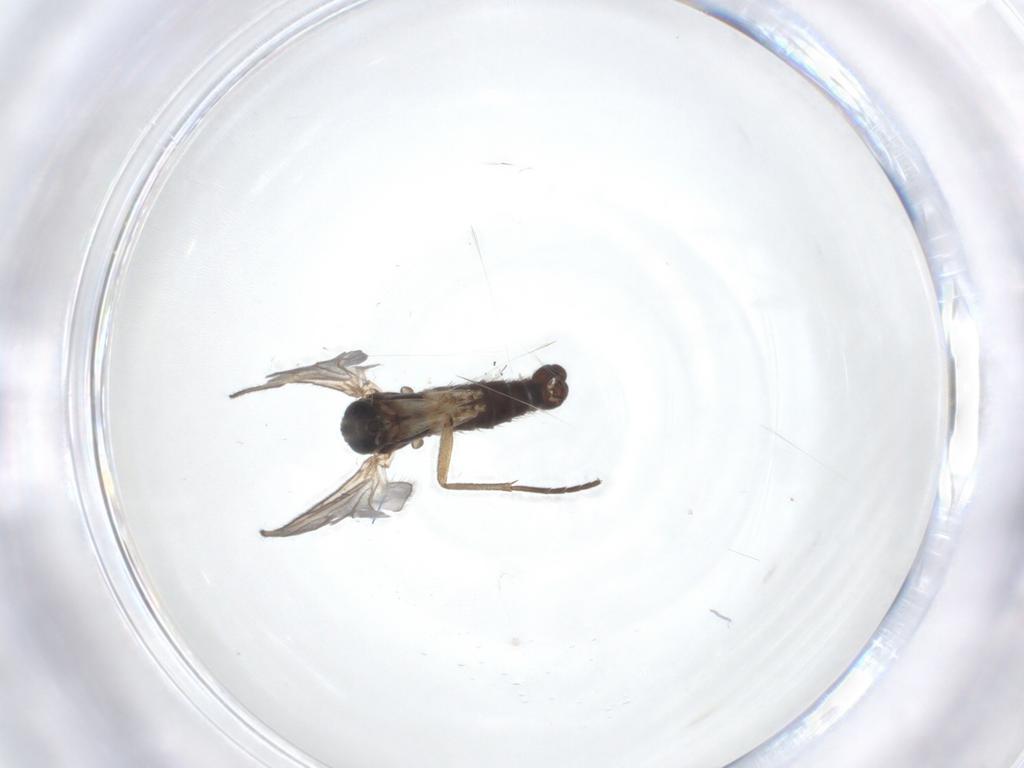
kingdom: Animalia
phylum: Arthropoda
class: Insecta
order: Diptera
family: Sciaridae
